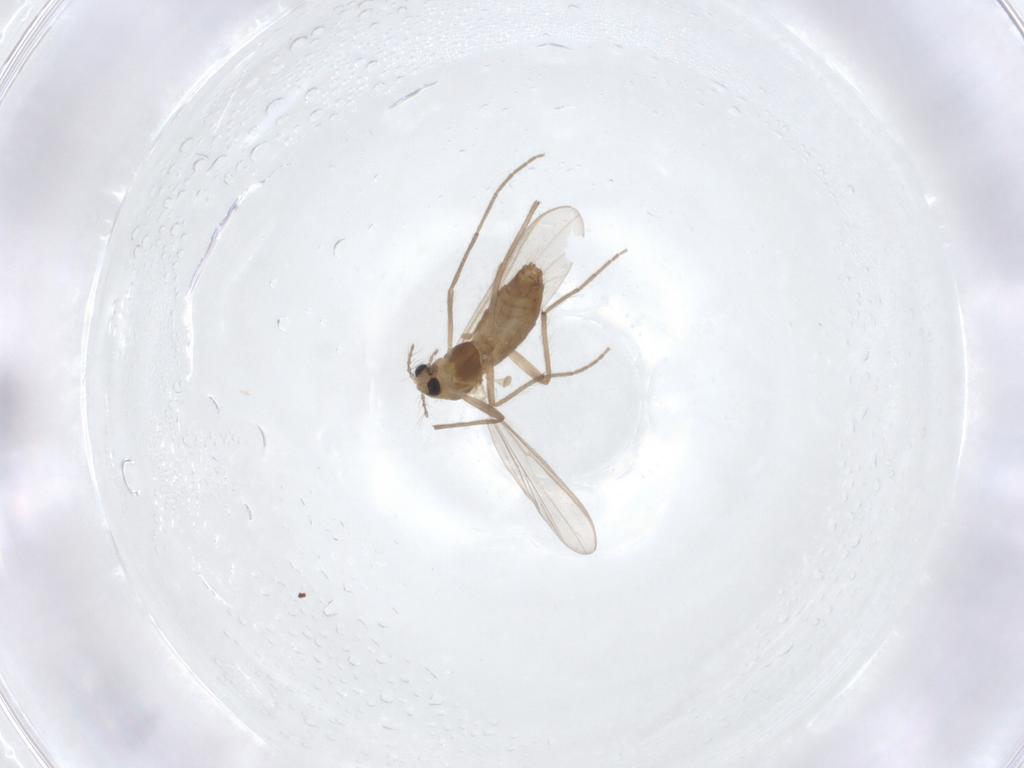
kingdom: Animalia
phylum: Arthropoda
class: Insecta
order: Diptera
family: Chironomidae
